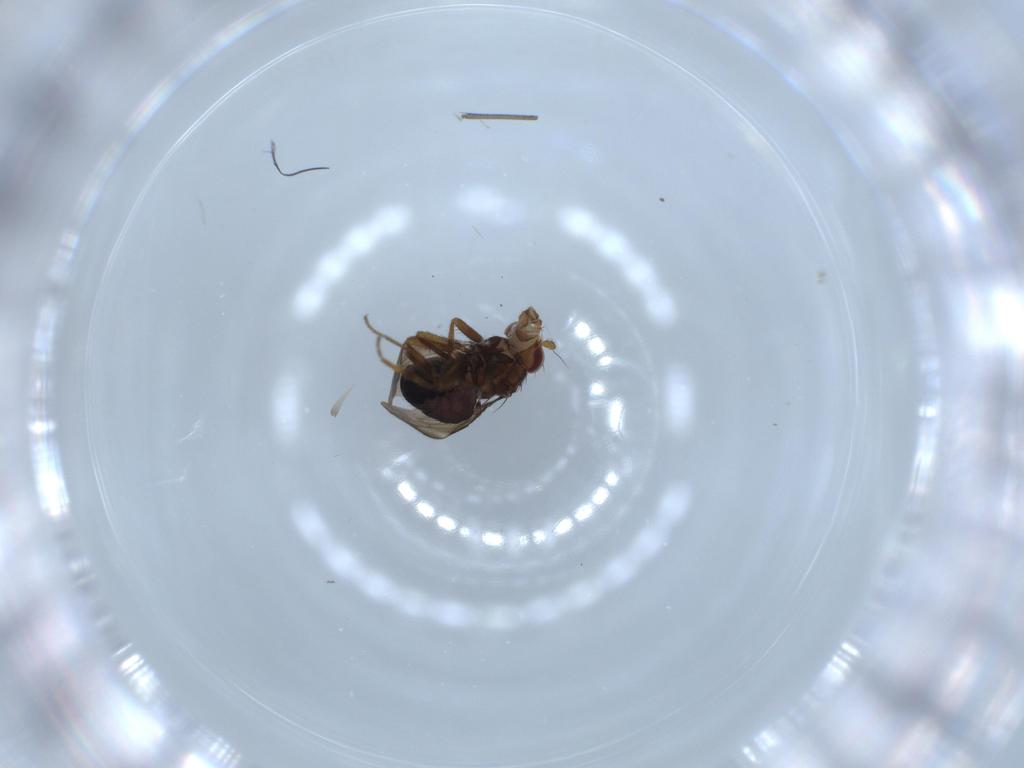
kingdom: Animalia
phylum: Arthropoda
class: Insecta
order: Diptera
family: Cecidomyiidae
